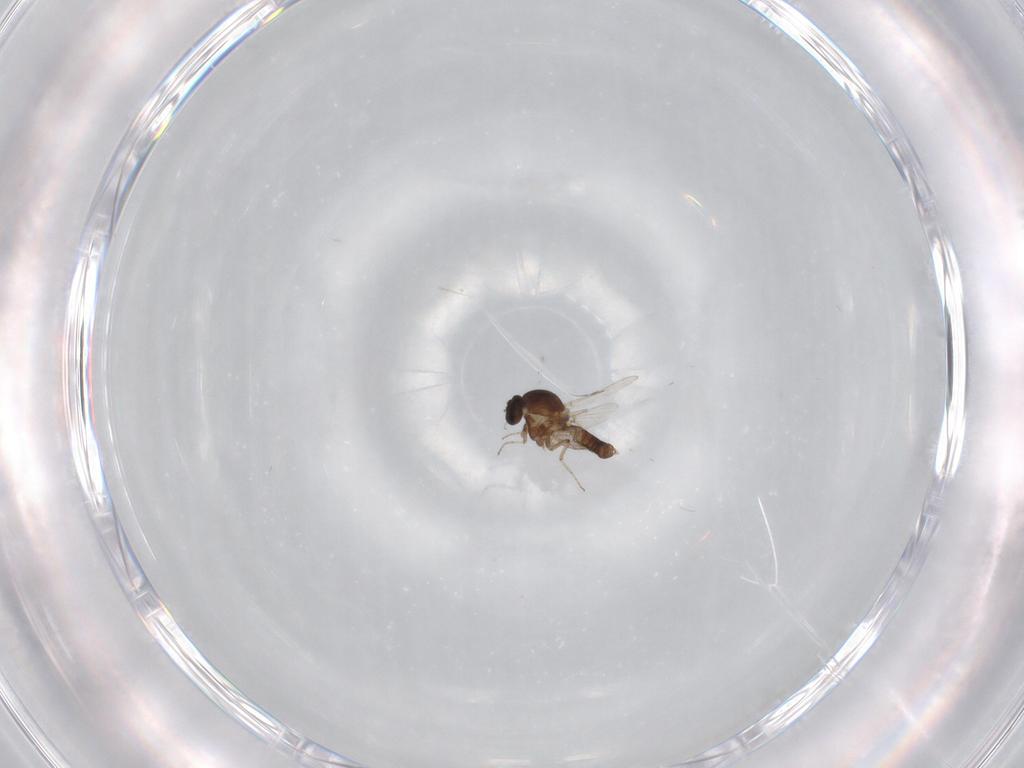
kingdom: Animalia
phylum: Arthropoda
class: Insecta
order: Diptera
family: Ceratopogonidae
